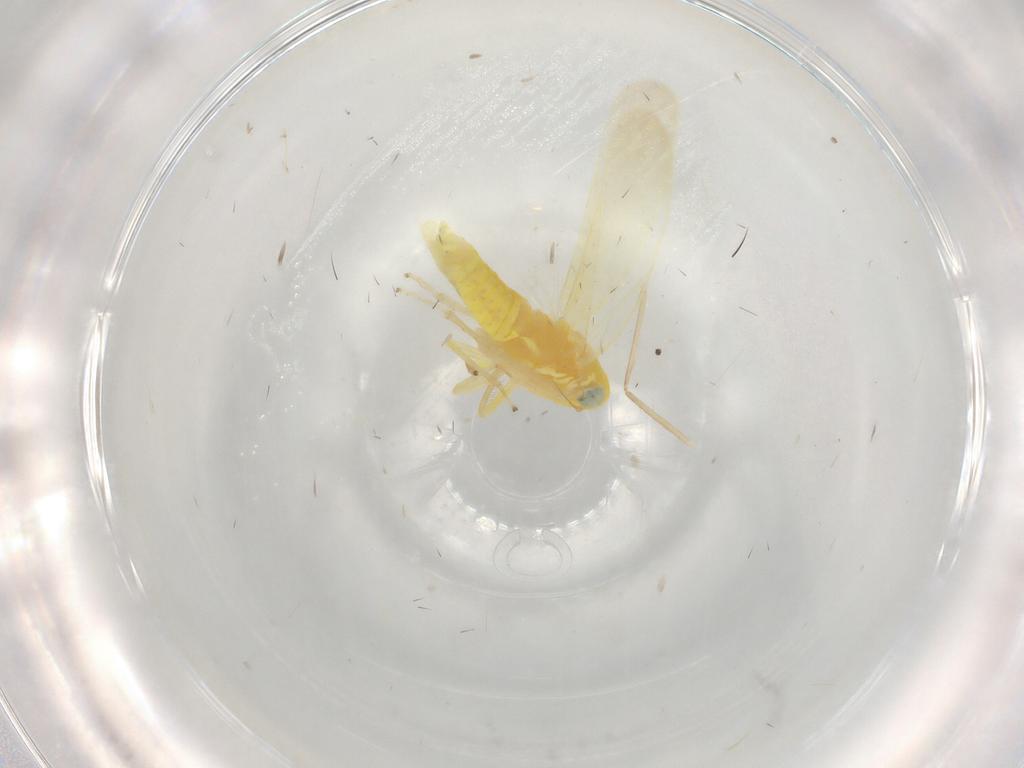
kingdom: Animalia
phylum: Arthropoda
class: Insecta
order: Hemiptera
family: Cicadellidae
